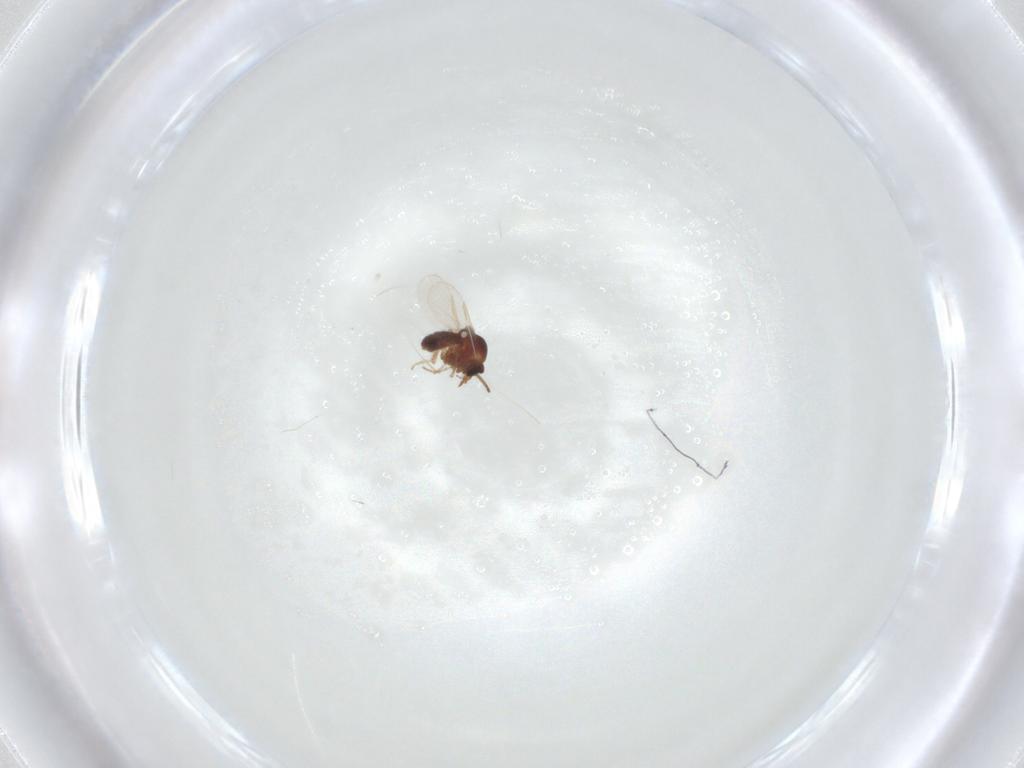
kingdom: Animalia
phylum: Arthropoda
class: Insecta
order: Diptera
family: Ceratopogonidae
